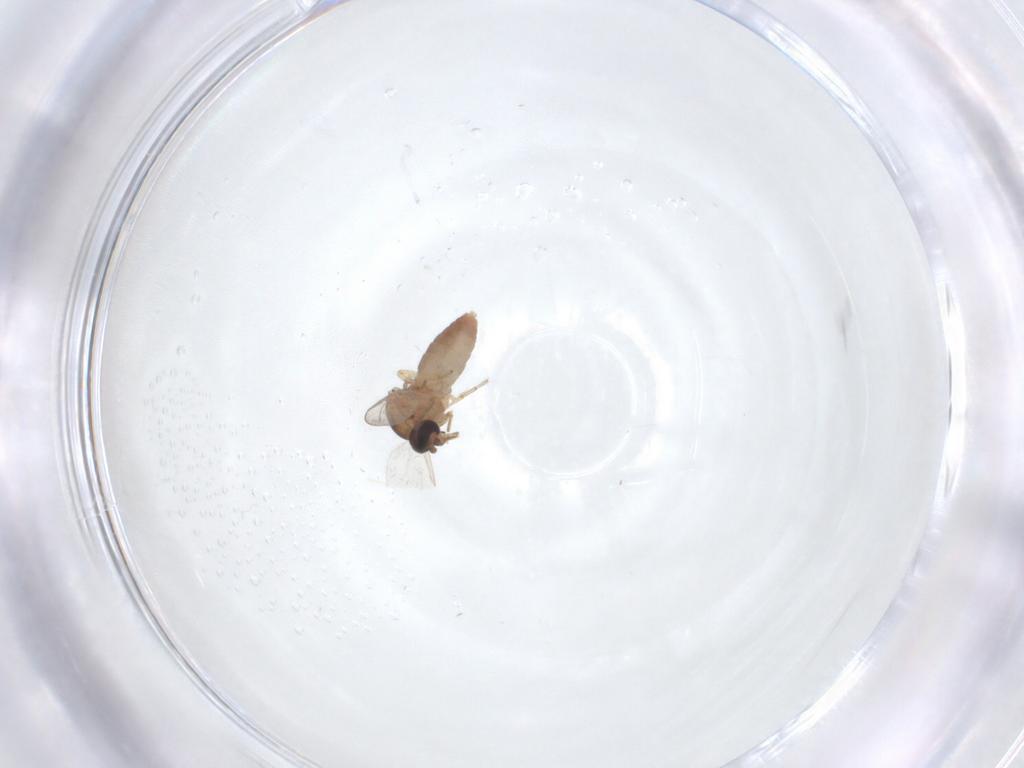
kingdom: Animalia
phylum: Arthropoda
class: Insecta
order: Diptera
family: Ceratopogonidae
